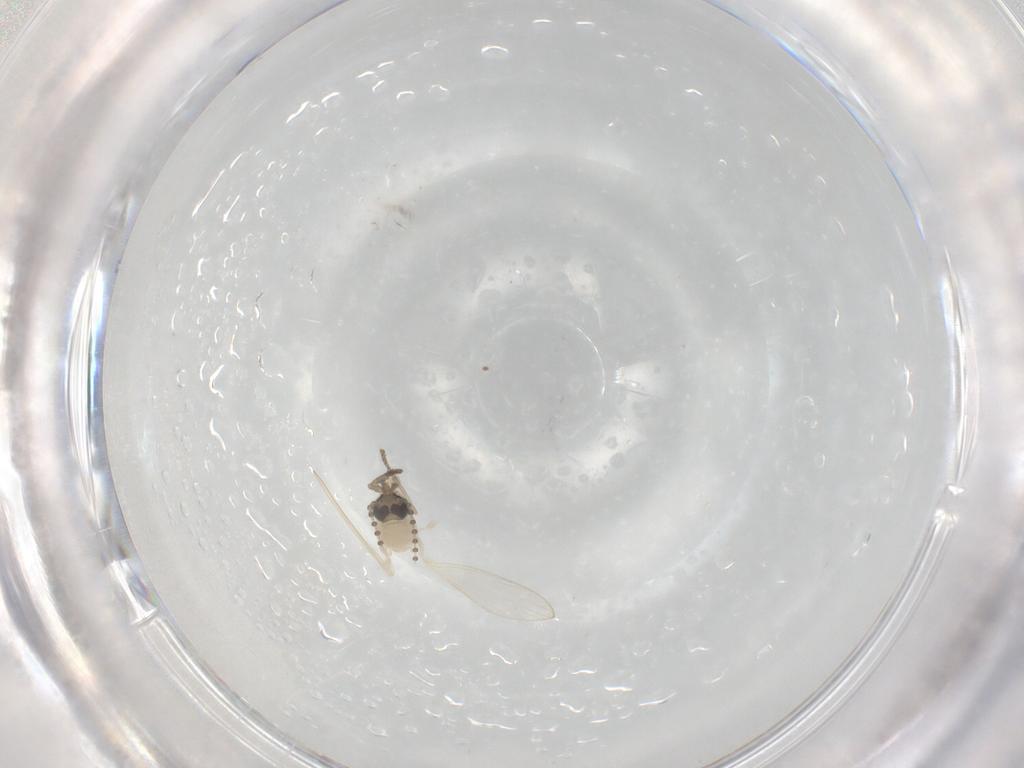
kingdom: Animalia
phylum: Arthropoda
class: Insecta
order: Diptera
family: Psychodidae
